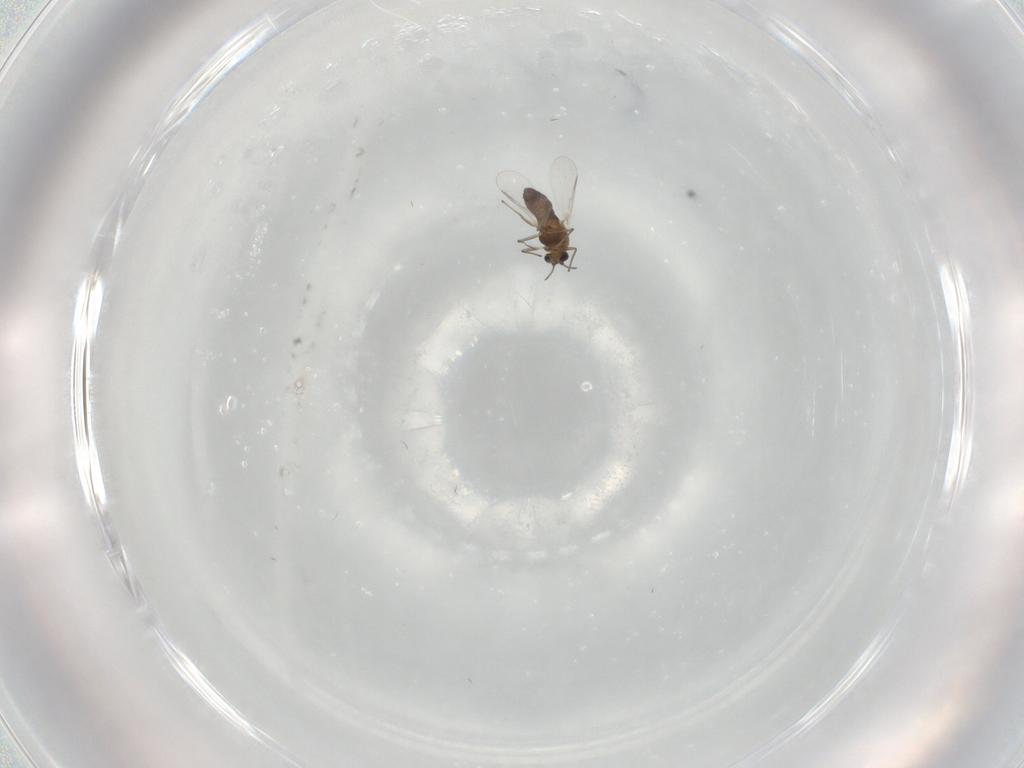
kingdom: Animalia
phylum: Arthropoda
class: Insecta
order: Diptera
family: Chironomidae
